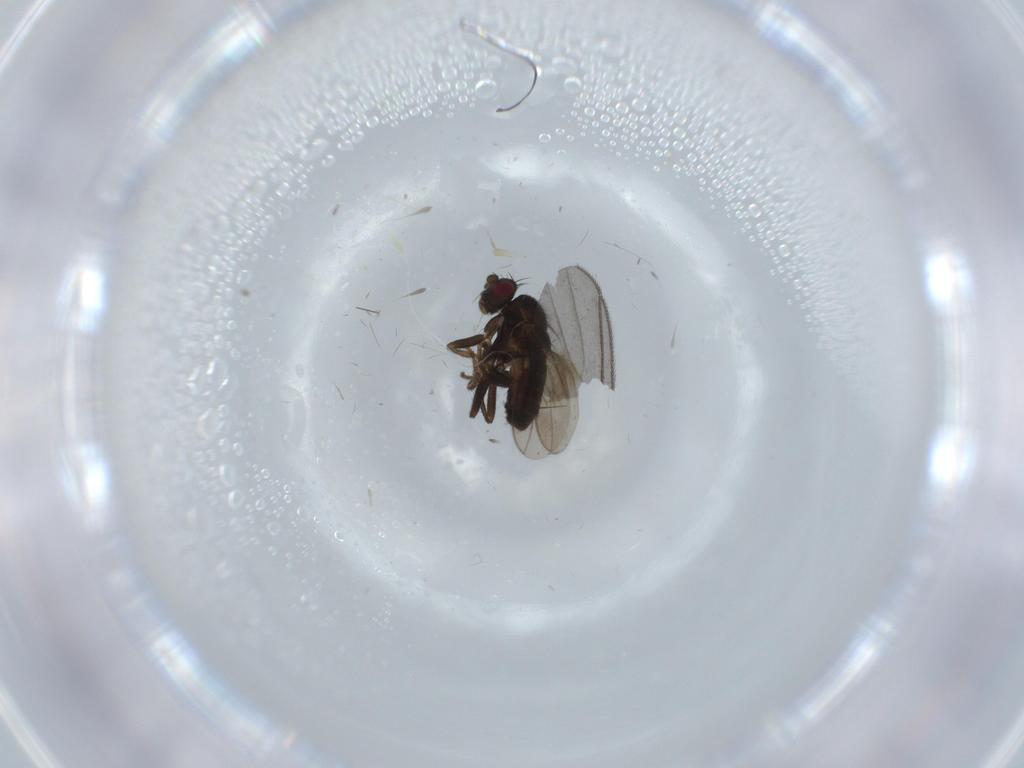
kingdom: Animalia
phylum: Arthropoda
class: Insecta
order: Diptera
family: Sphaeroceridae
